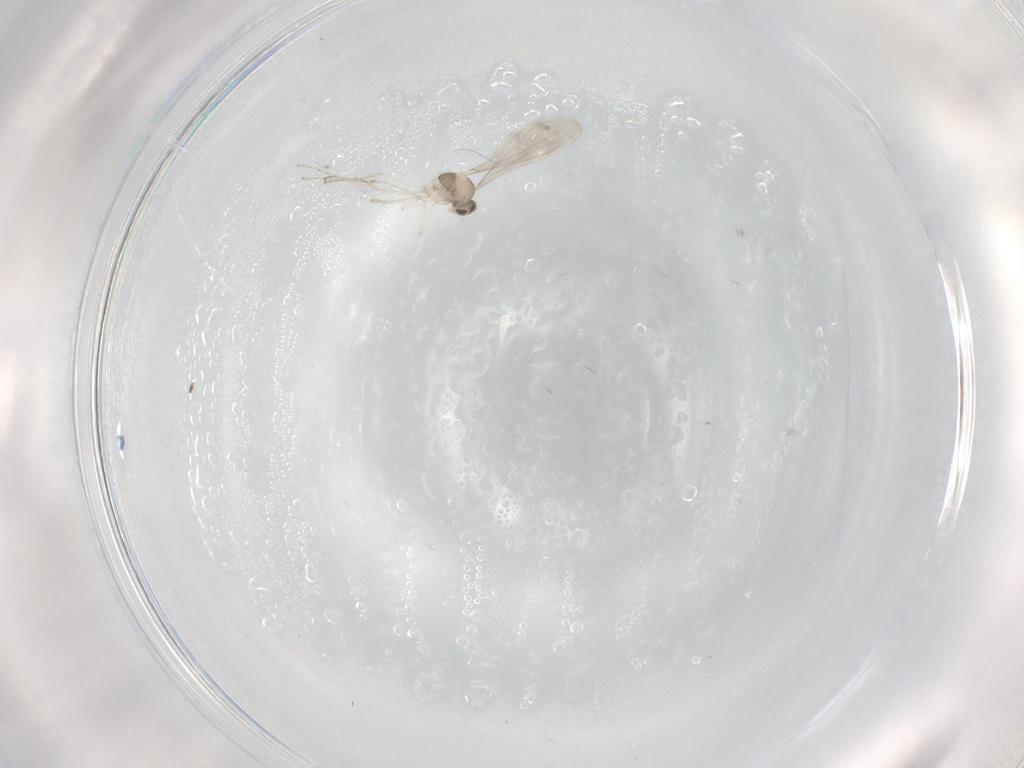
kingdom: Animalia
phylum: Arthropoda
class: Insecta
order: Diptera
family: Cecidomyiidae
